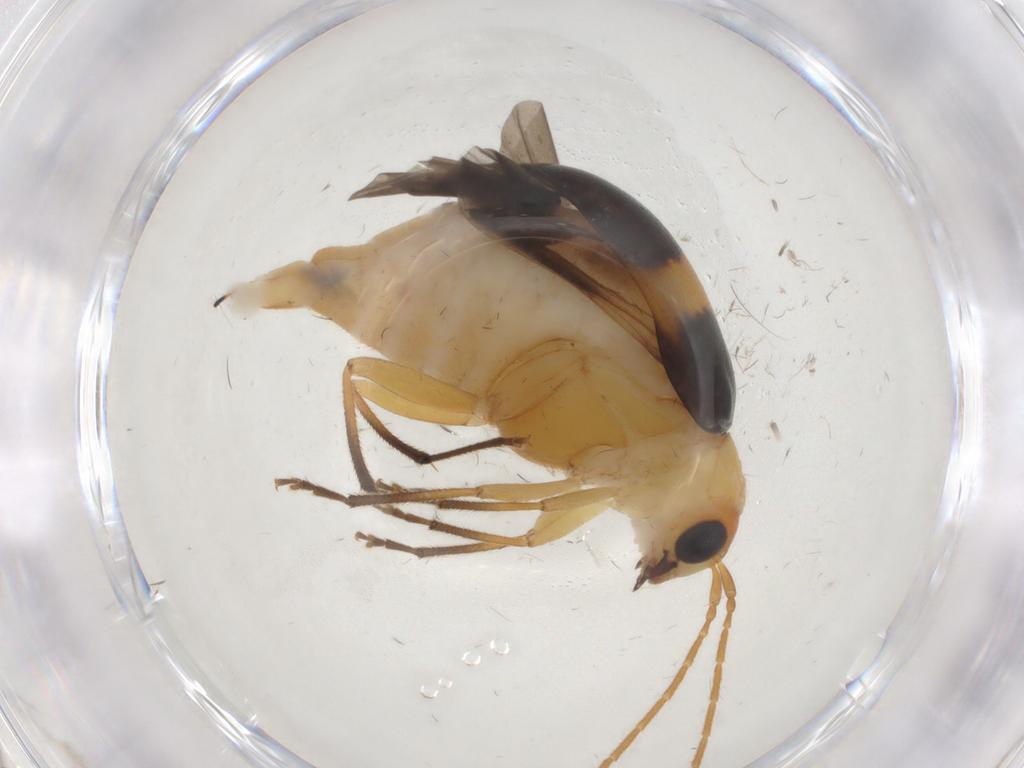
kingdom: Animalia
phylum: Arthropoda
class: Insecta
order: Coleoptera
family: Chrysomelidae
